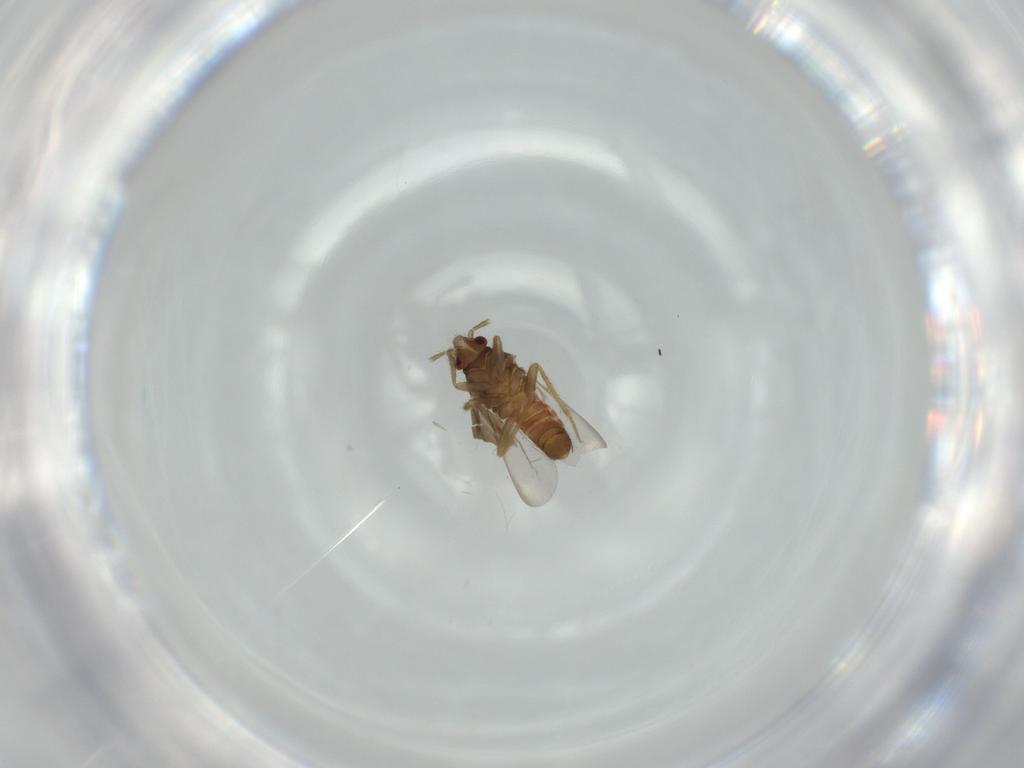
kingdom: Animalia
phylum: Arthropoda
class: Insecta
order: Hemiptera
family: Ceratocombidae
